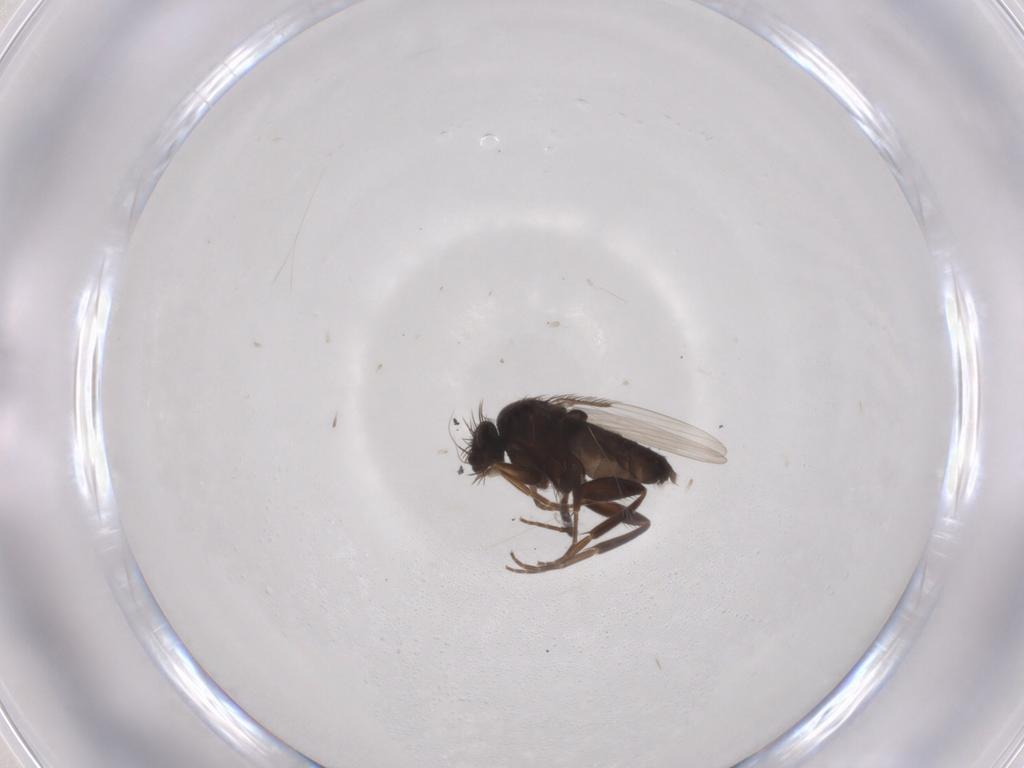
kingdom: Animalia
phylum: Arthropoda
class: Insecta
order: Diptera
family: Phoridae
